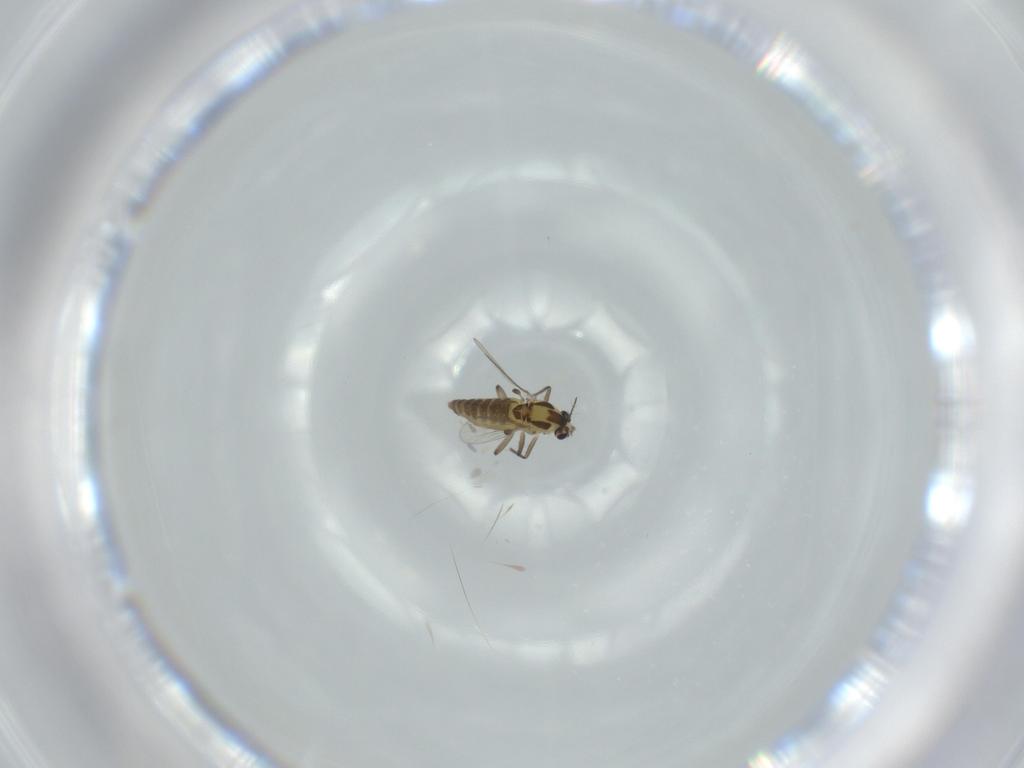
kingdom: Animalia
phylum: Arthropoda
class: Insecta
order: Diptera
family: Chironomidae
